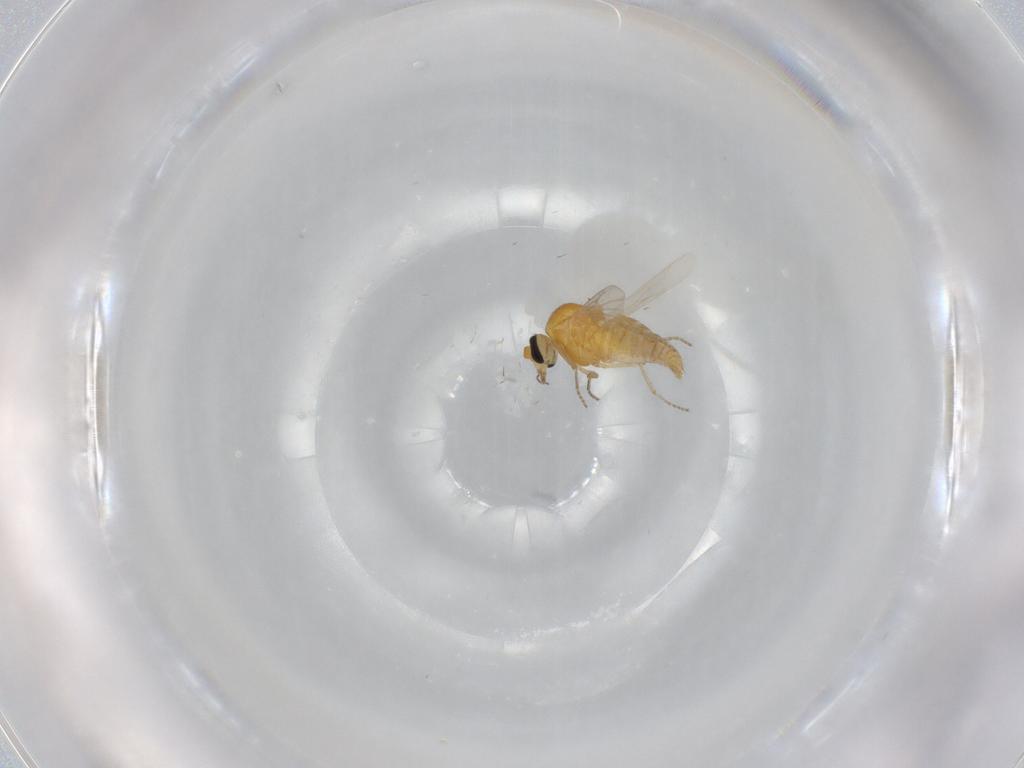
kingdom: Animalia
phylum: Arthropoda
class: Insecta
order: Diptera
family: Ceratopogonidae
